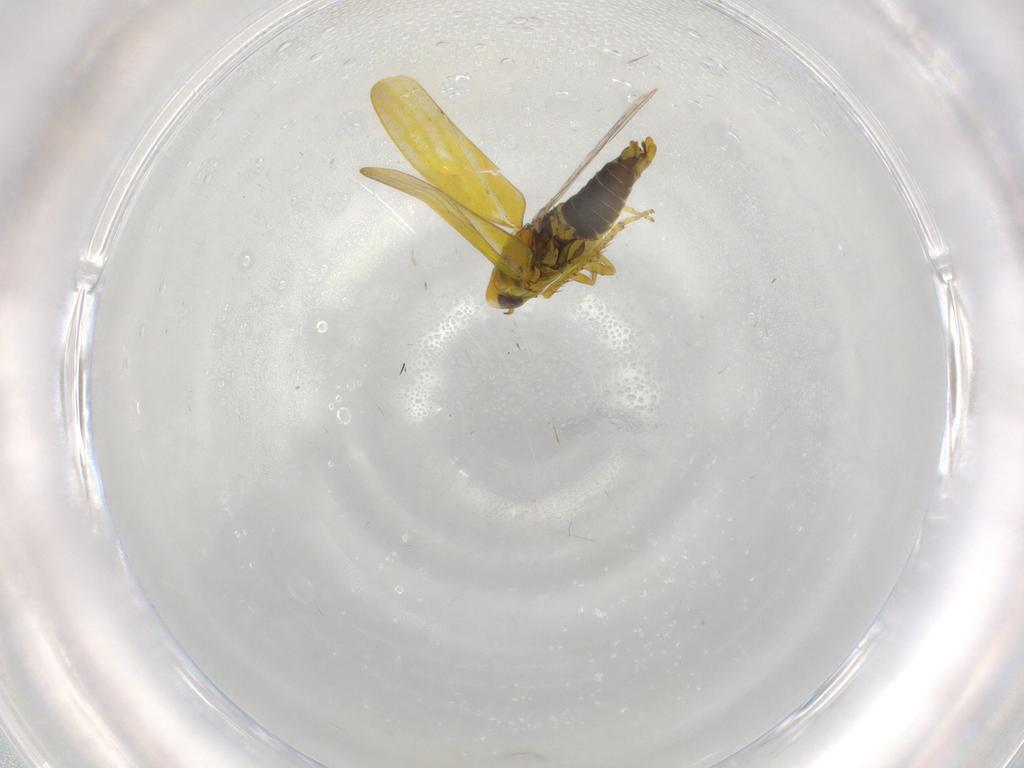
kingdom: Animalia
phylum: Arthropoda
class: Insecta
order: Hemiptera
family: Cicadellidae
